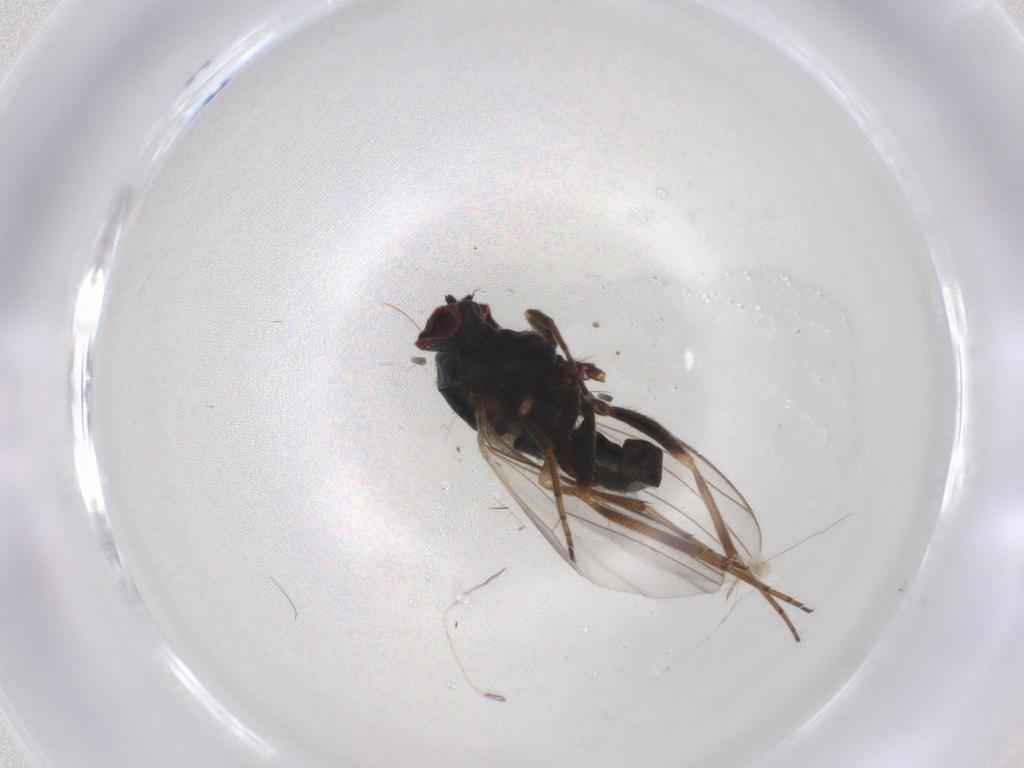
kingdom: Animalia
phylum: Arthropoda
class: Insecta
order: Diptera
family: Dolichopodidae
